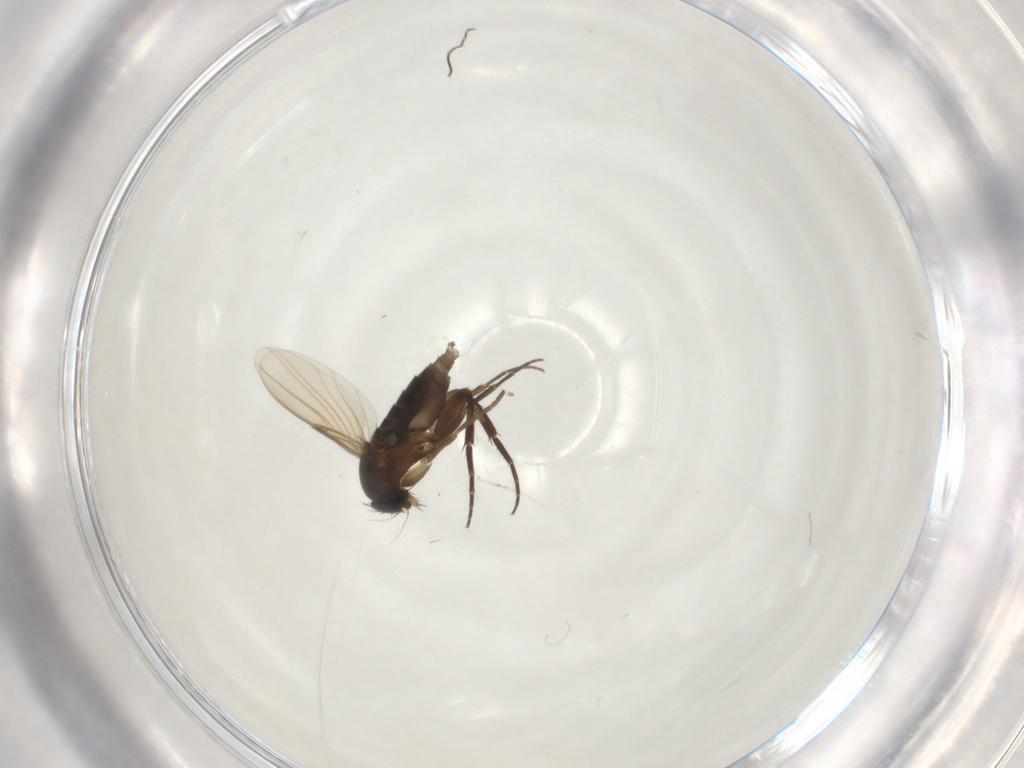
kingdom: Animalia
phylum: Arthropoda
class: Insecta
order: Diptera
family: Phoridae
